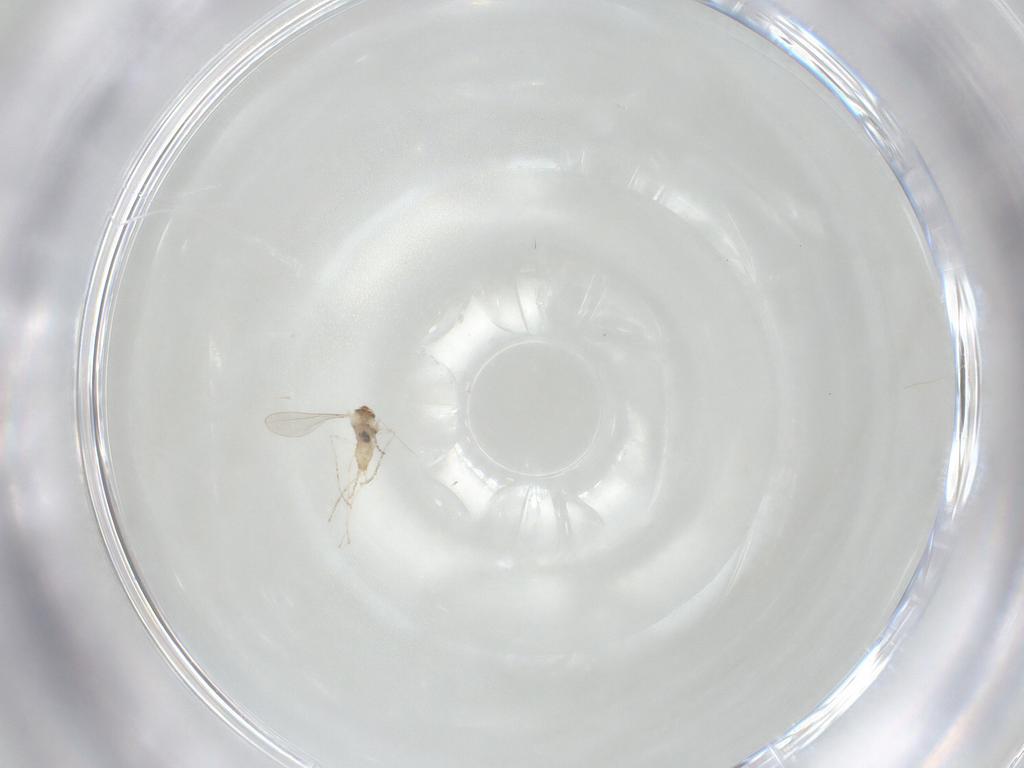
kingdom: Animalia
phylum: Arthropoda
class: Insecta
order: Diptera
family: Cecidomyiidae
